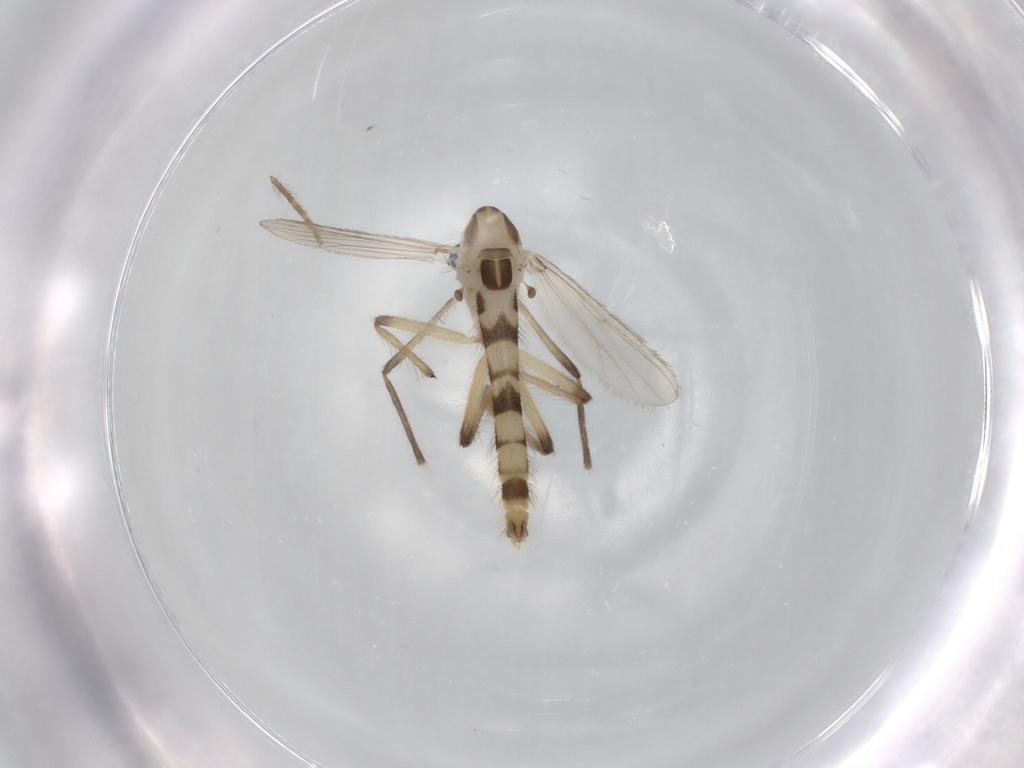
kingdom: Animalia
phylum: Arthropoda
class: Insecta
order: Diptera
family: Chironomidae
